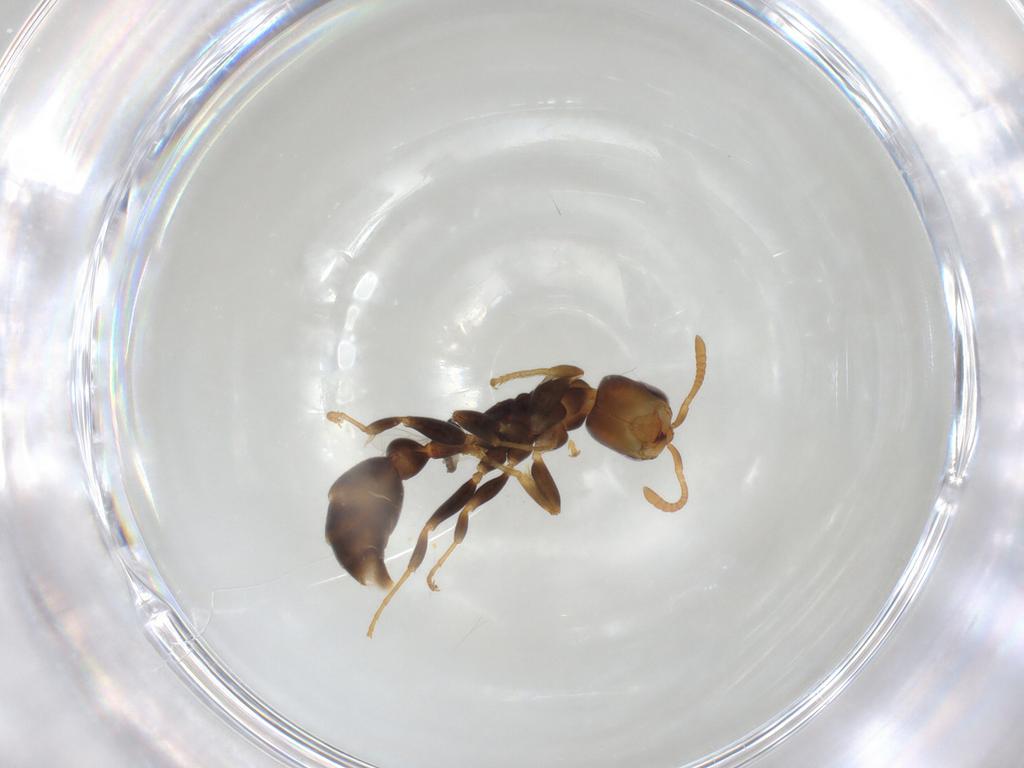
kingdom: Animalia
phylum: Arthropoda
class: Insecta
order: Hymenoptera
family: Formicidae
